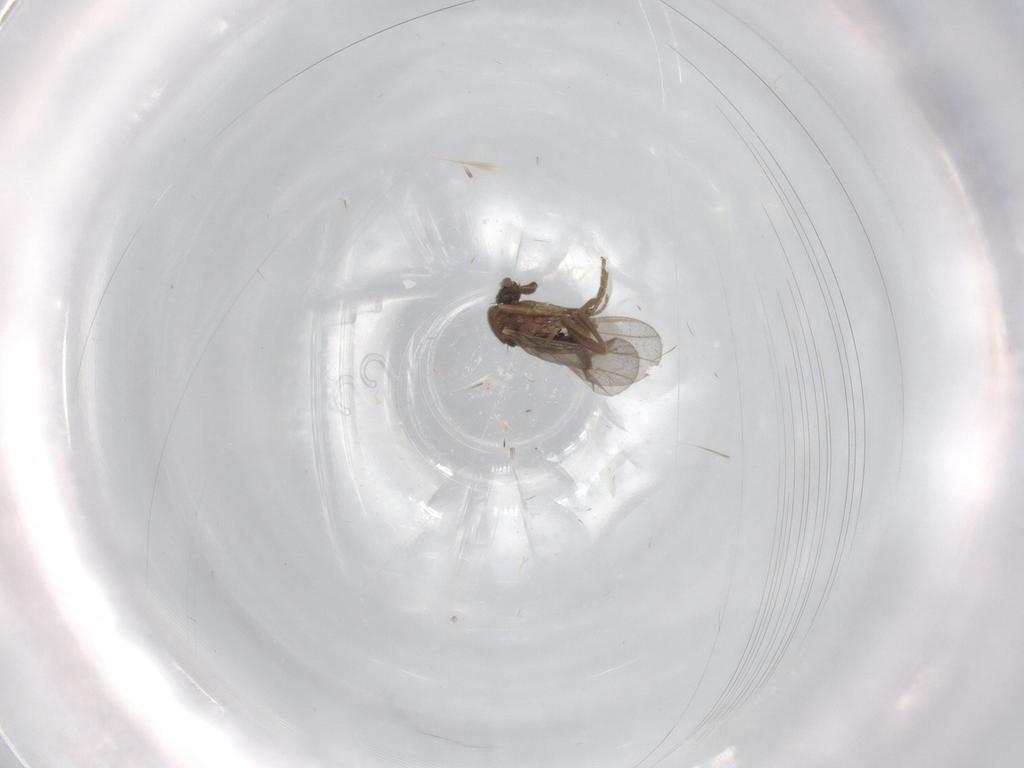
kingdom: Animalia
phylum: Arthropoda
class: Insecta
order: Diptera
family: Phoridae
